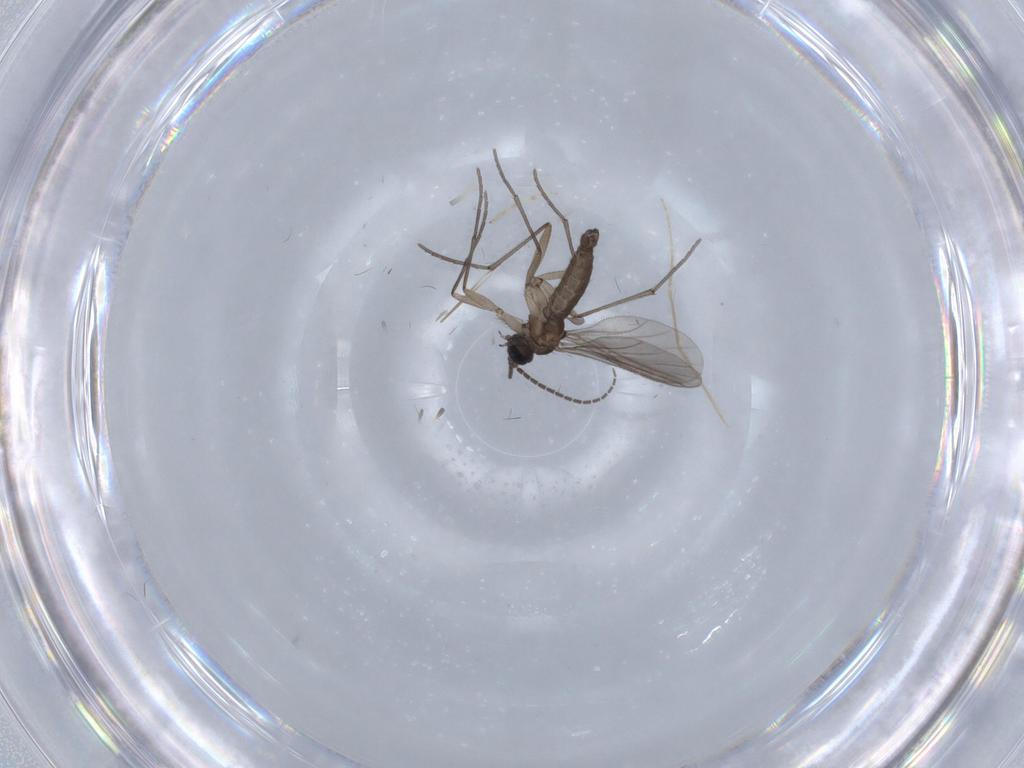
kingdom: Animalia
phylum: Arthropoda
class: Insecta
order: Diptera
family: Sciaridae
